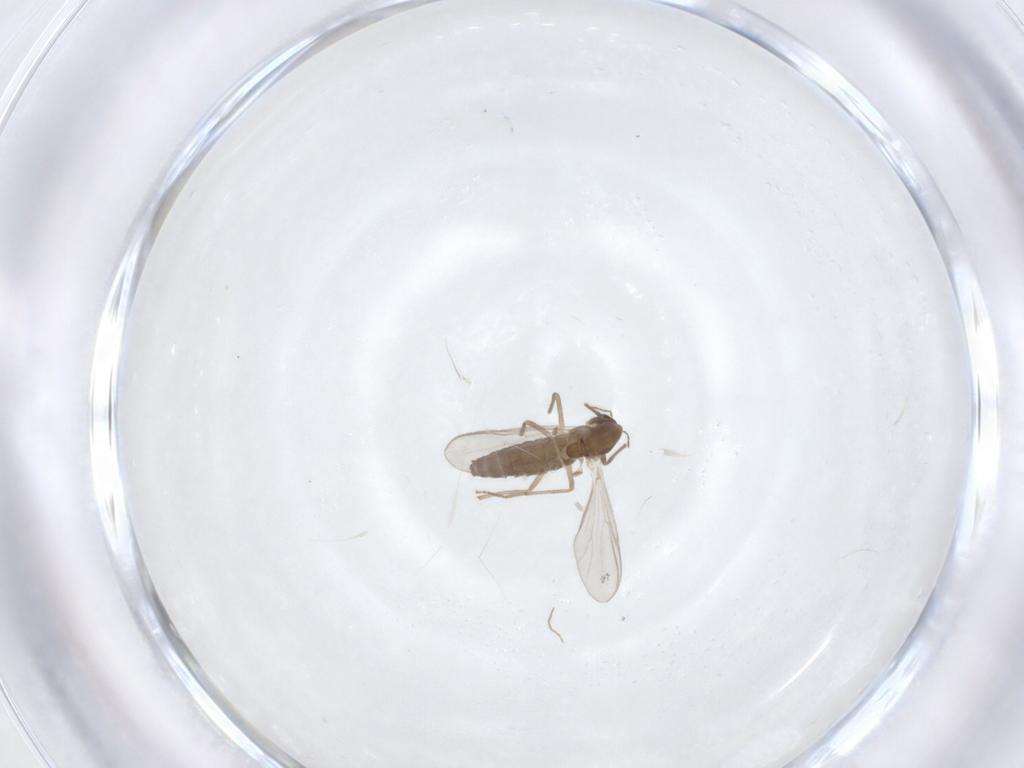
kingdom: Animalia
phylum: Arthropoda
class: Insecta
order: Diptera
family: Chironomidae
